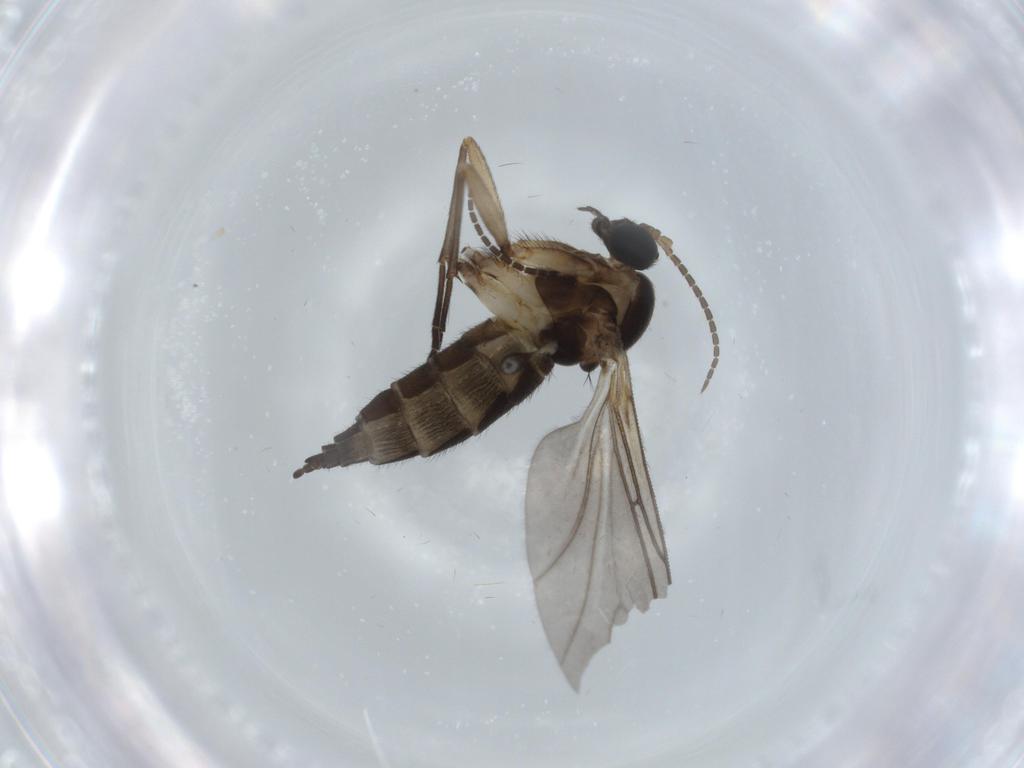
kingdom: Animalia
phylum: Arthropoda
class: Insecta
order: Diptera
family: Sciaridae
